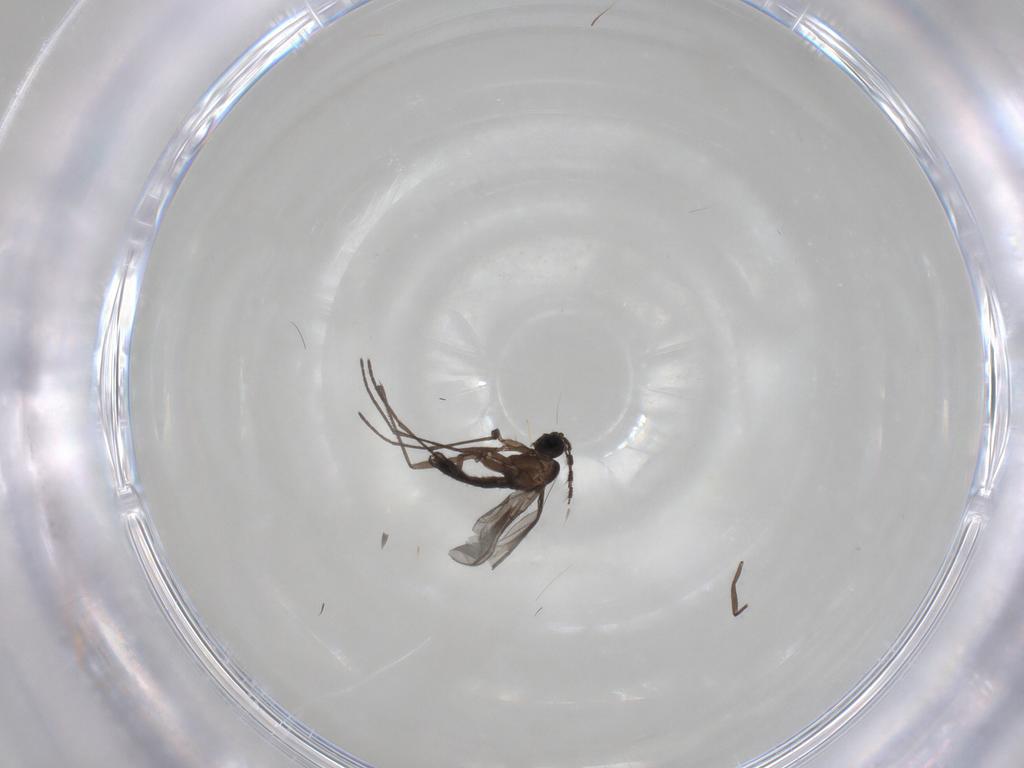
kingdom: Animalia
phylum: Arthropoda
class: Insecta
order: Diptera
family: Sciaridae
